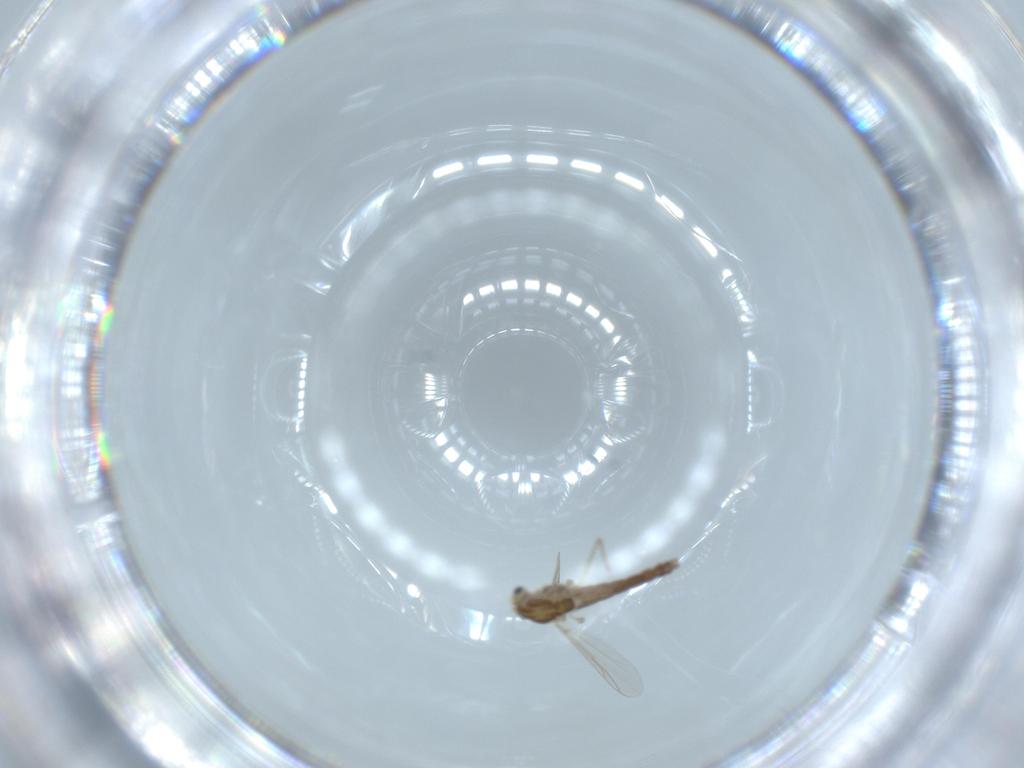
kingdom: Animalia
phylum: Arthropoda
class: Insecta
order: Diptera
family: Chironomidae
